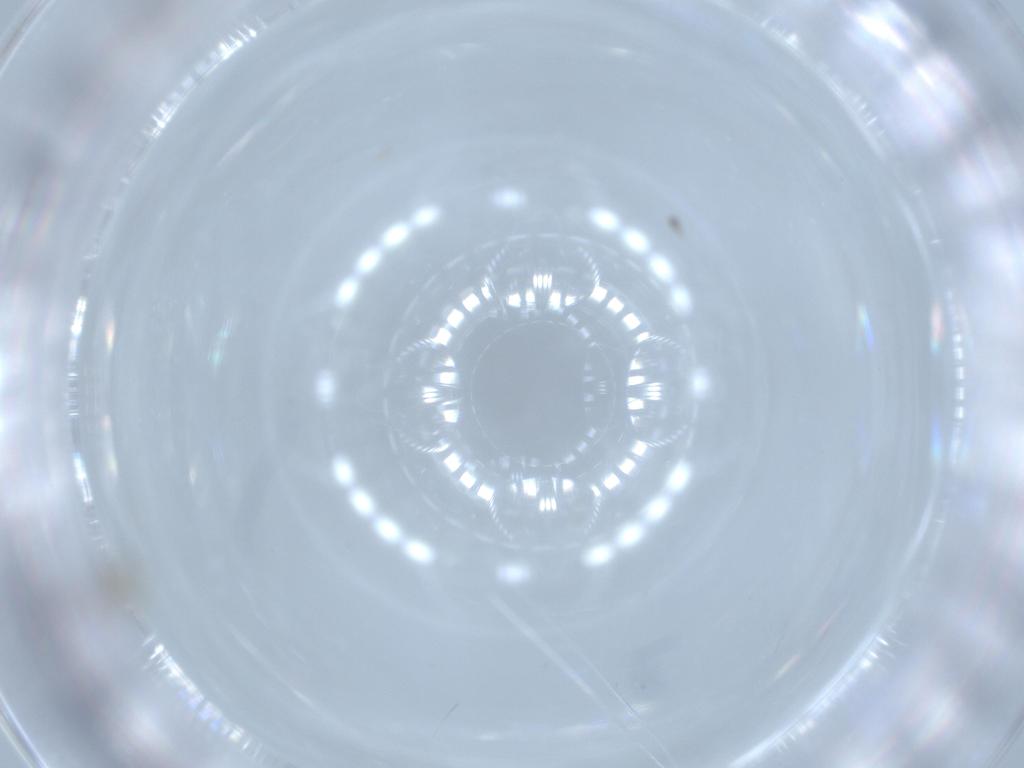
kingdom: Animalia
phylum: Arthropoda
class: Insecta
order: Diptera
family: Cecidomyiidae
